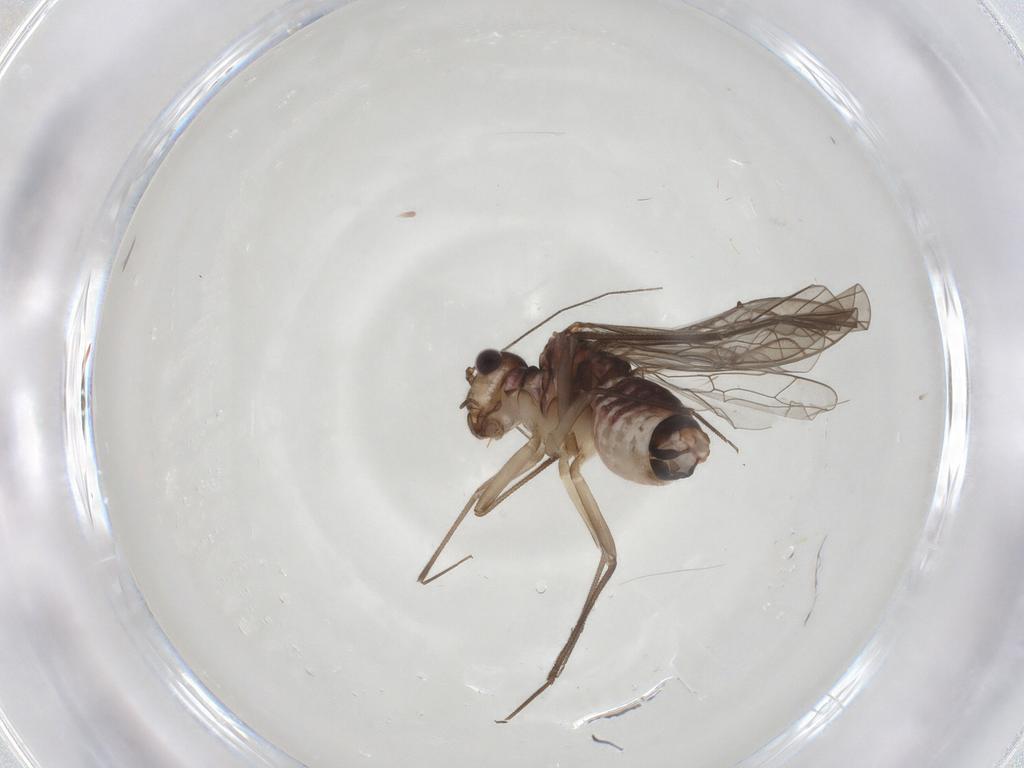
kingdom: Animalia
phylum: Arthropoda
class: Insecta
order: Psocodea
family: Lachesillidae
